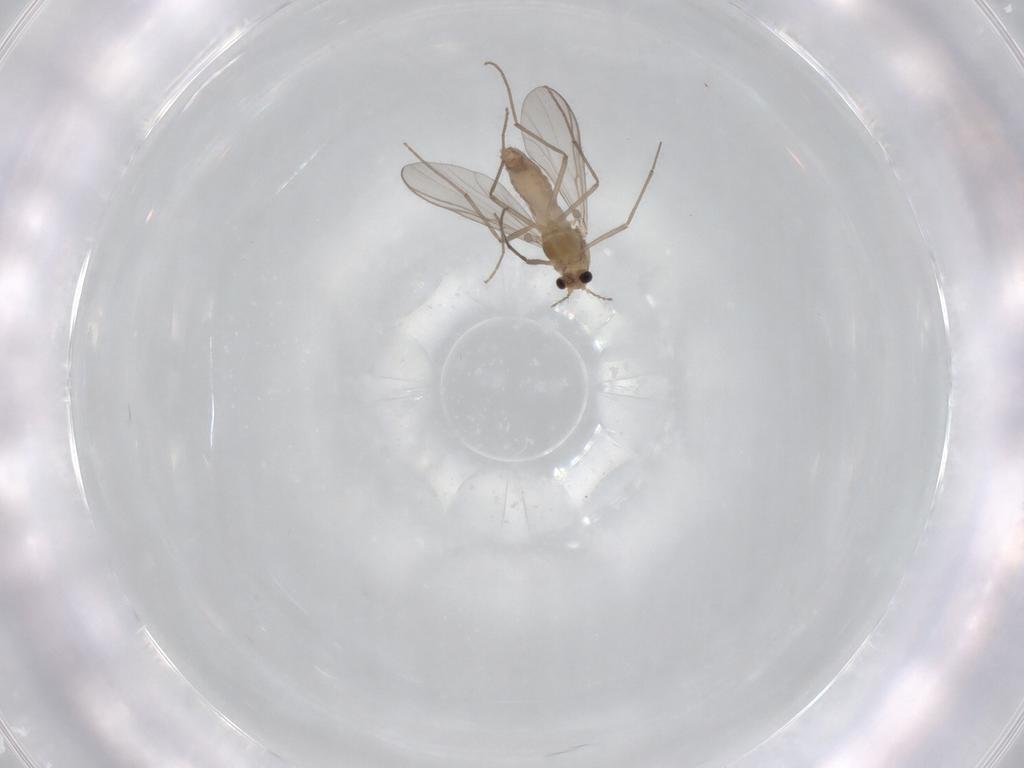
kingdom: Animalia
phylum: Arthropoda
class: Insecta
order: Diptera
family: Chironomidae
